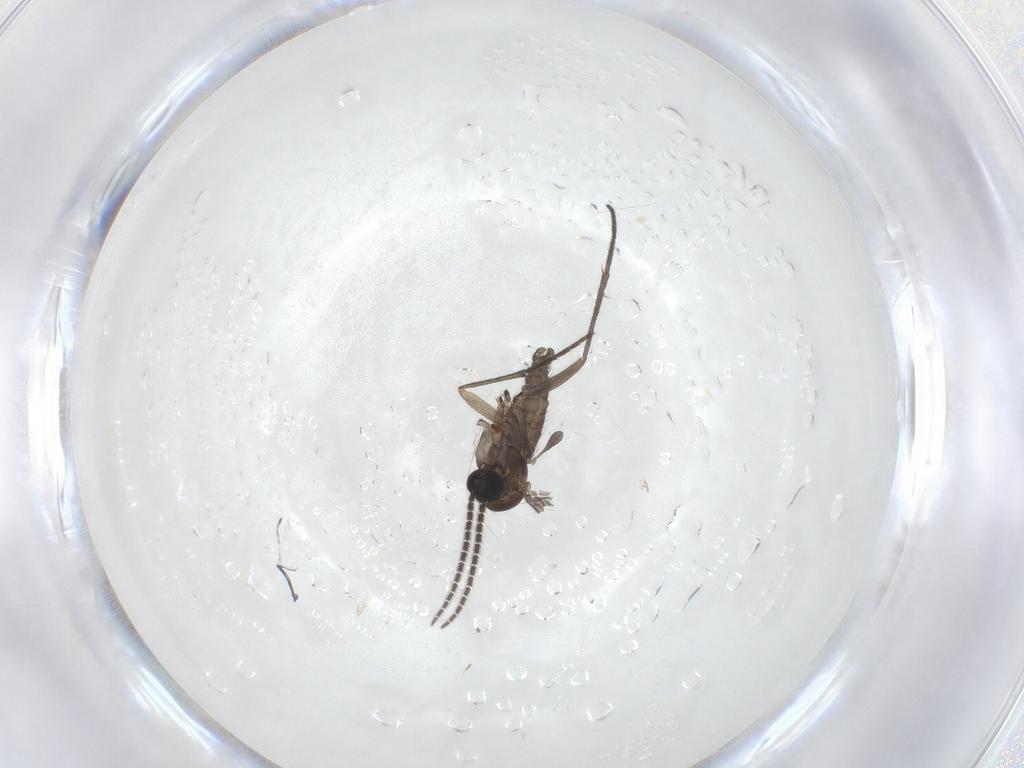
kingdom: Animalia
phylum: Arthropoda
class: Insecta
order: Diptera
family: Sciaridae
